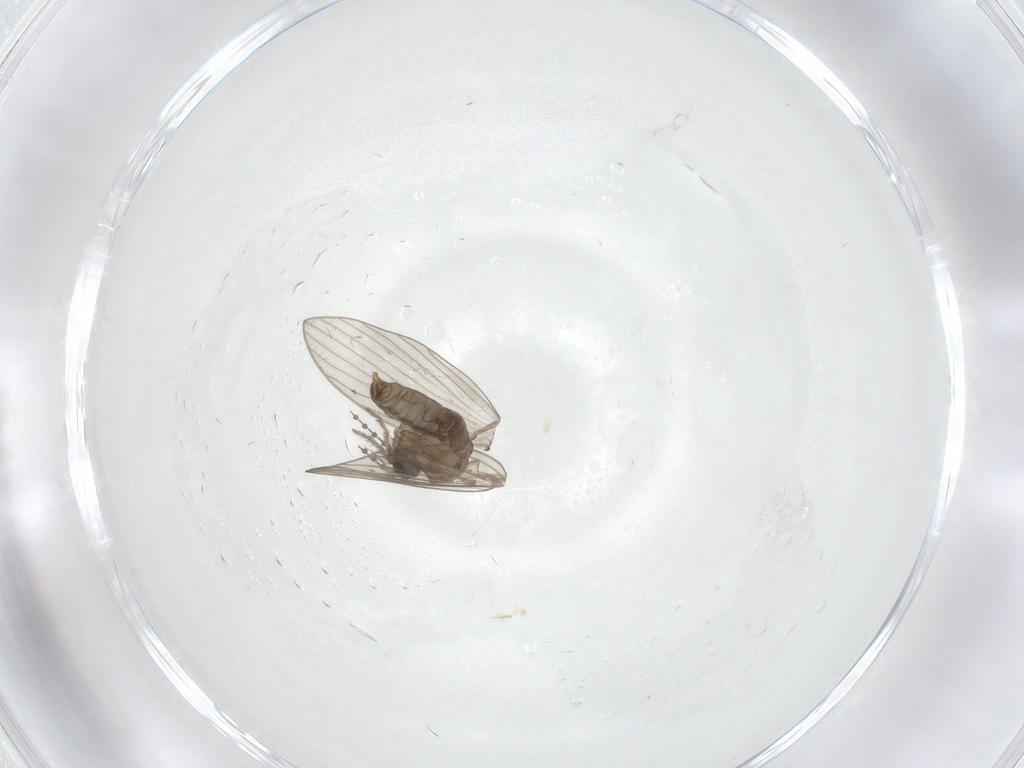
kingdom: Animalia
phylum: Arthropoda
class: Insecta
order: Diptera
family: Psychodidae
